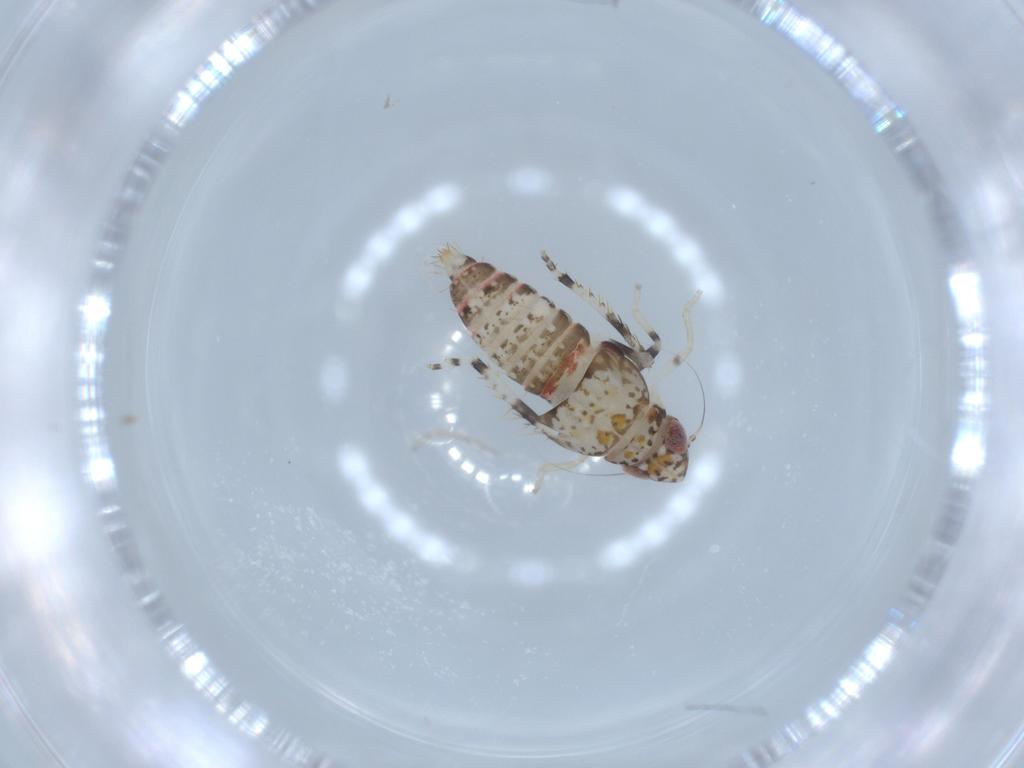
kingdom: Animalia
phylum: Arthropoda
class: Insecta
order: Hemiptera
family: Cicadellidae
